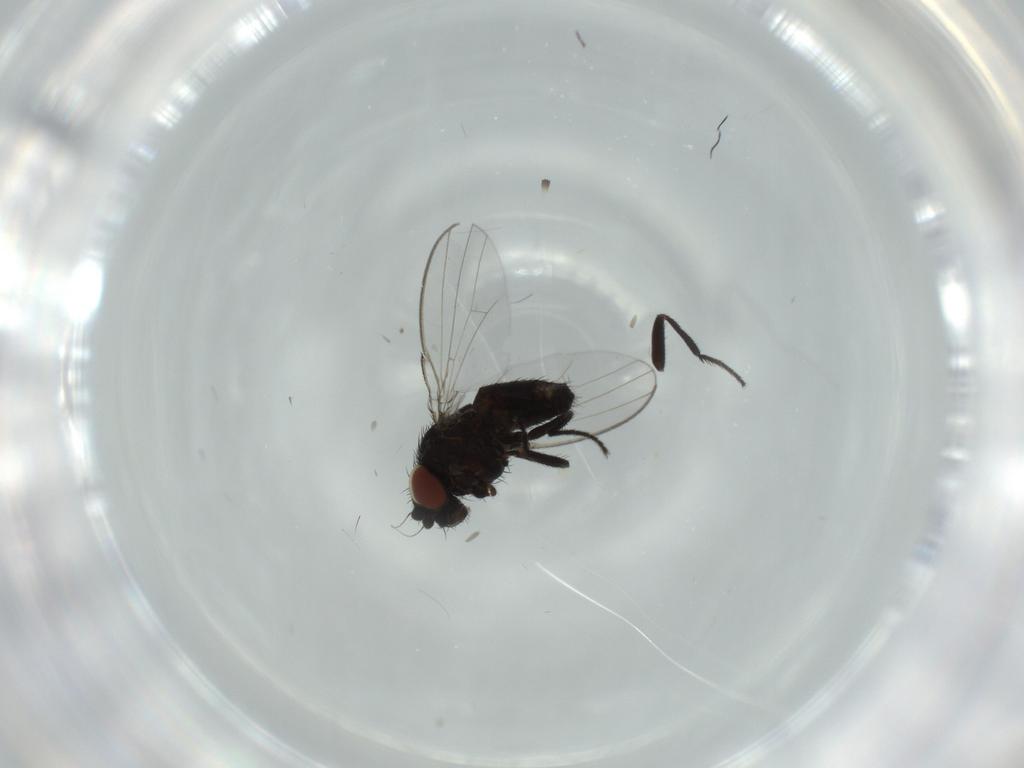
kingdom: Animalia
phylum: Arthropoda
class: Insecta
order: Diptera
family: Milichiidae
